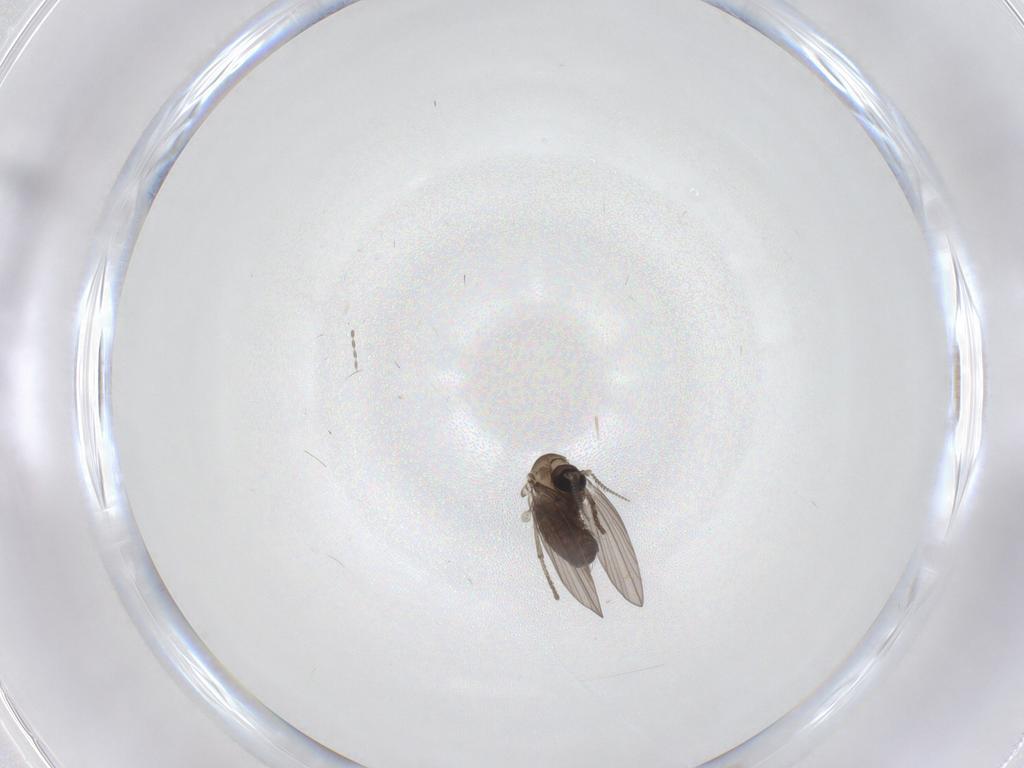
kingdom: Animalia
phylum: Arthropoda
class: Insecta
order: Diptera
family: Psychodidae
